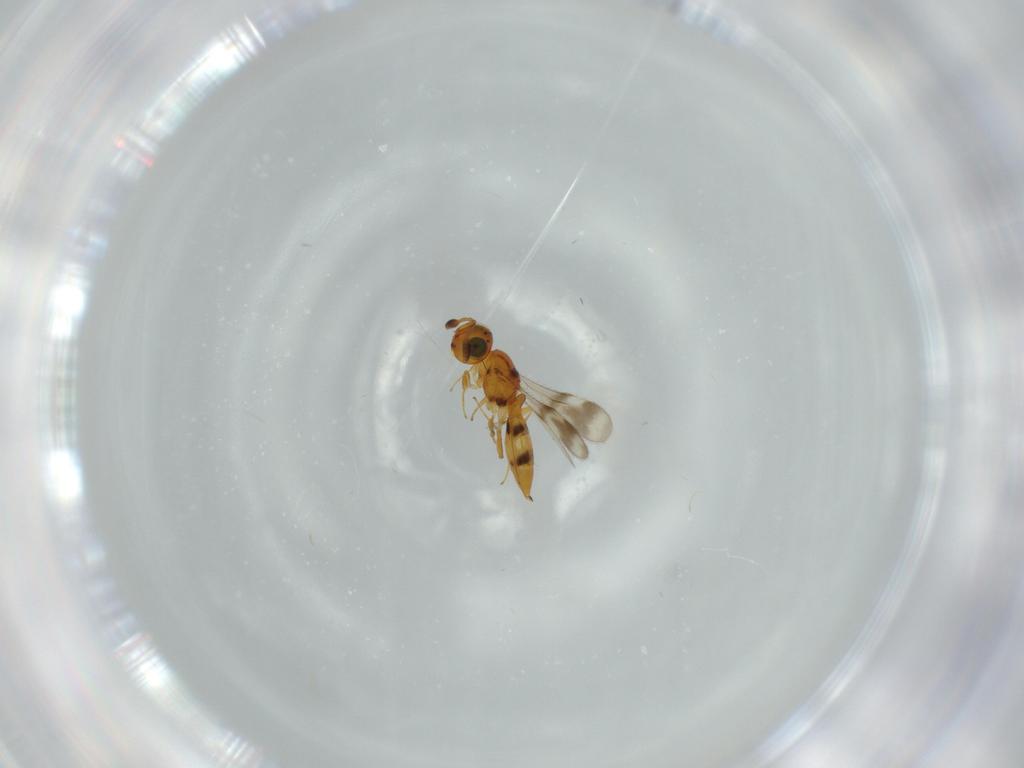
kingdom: Animalia
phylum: Arthropoda
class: Insecta
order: Hymenoptera
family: Scelionidae
